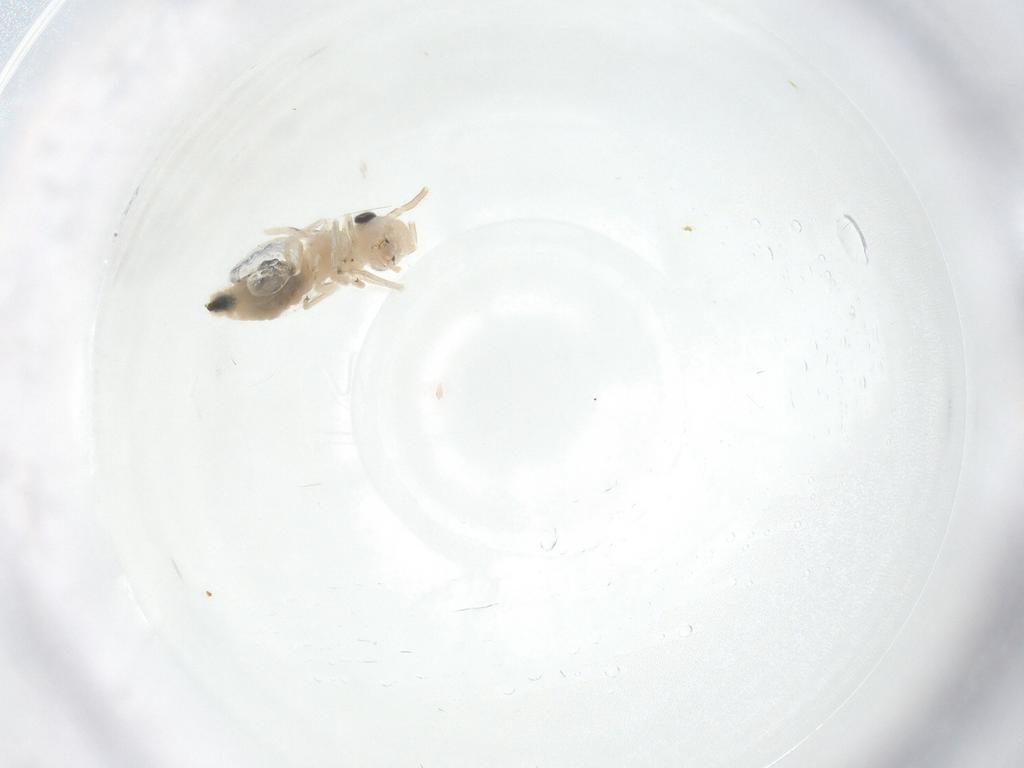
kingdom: Animalia
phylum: Arthropoda
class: Insecta
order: Psocodea
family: Caeciliusidae
